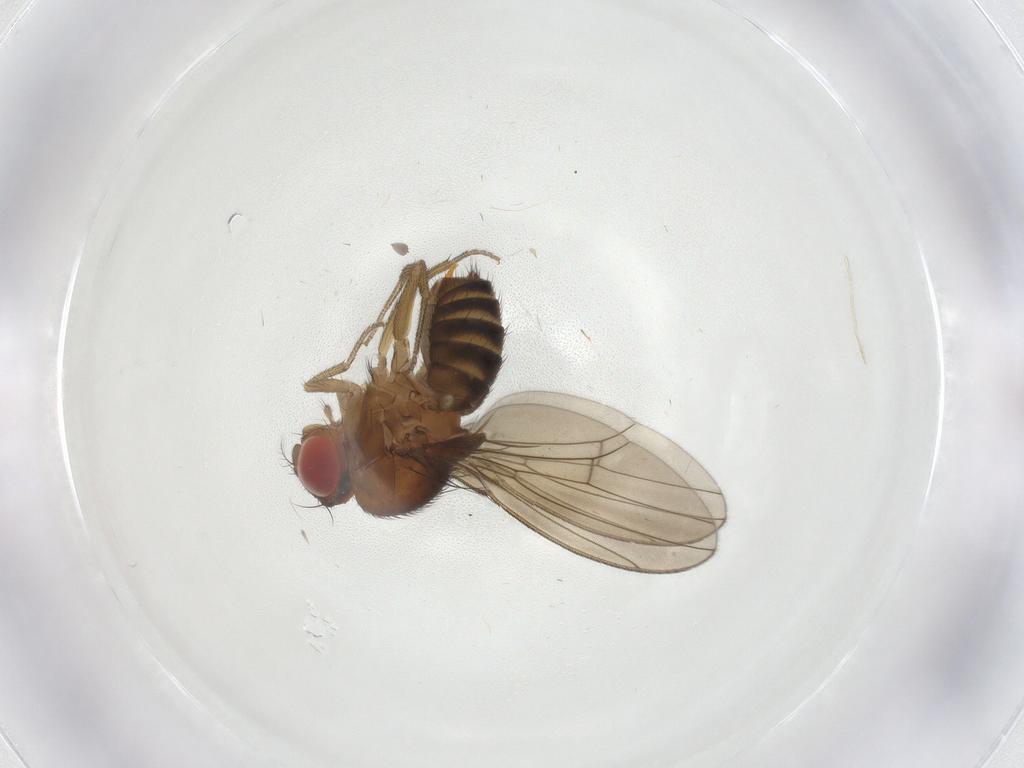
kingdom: Animalia
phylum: Arthropoda
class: Insecta
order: Diptera
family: Drosophilidae
